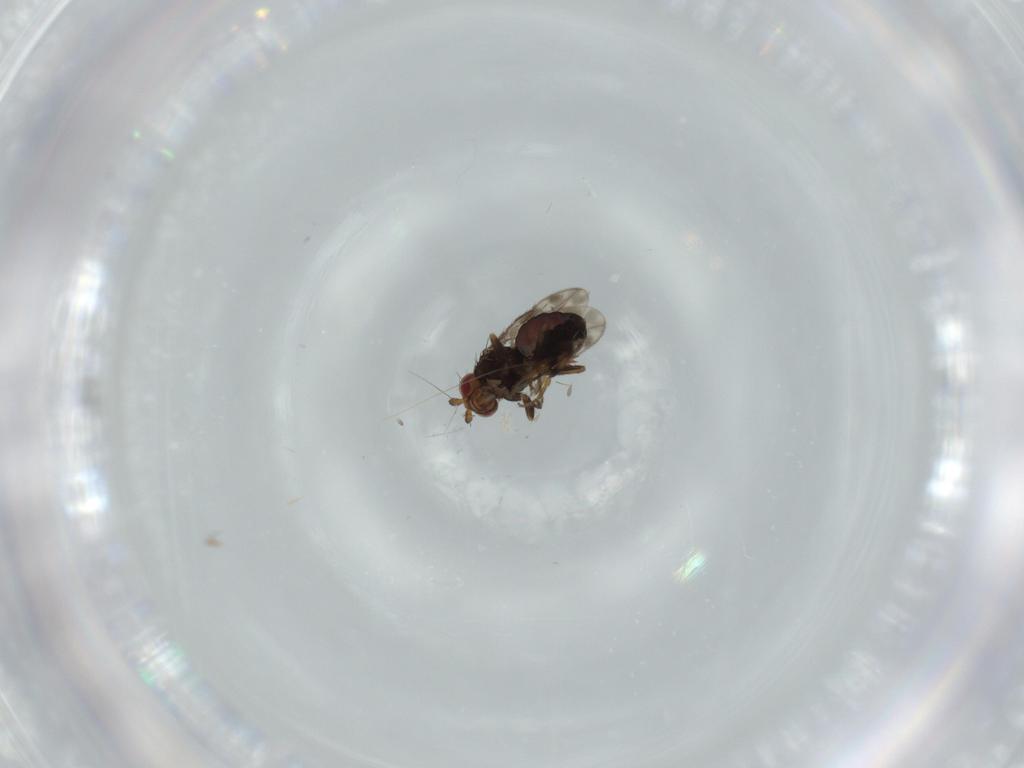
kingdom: Animalia
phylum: Arthropoda
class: Insecta
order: Diptera
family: Sphaeroceridae
